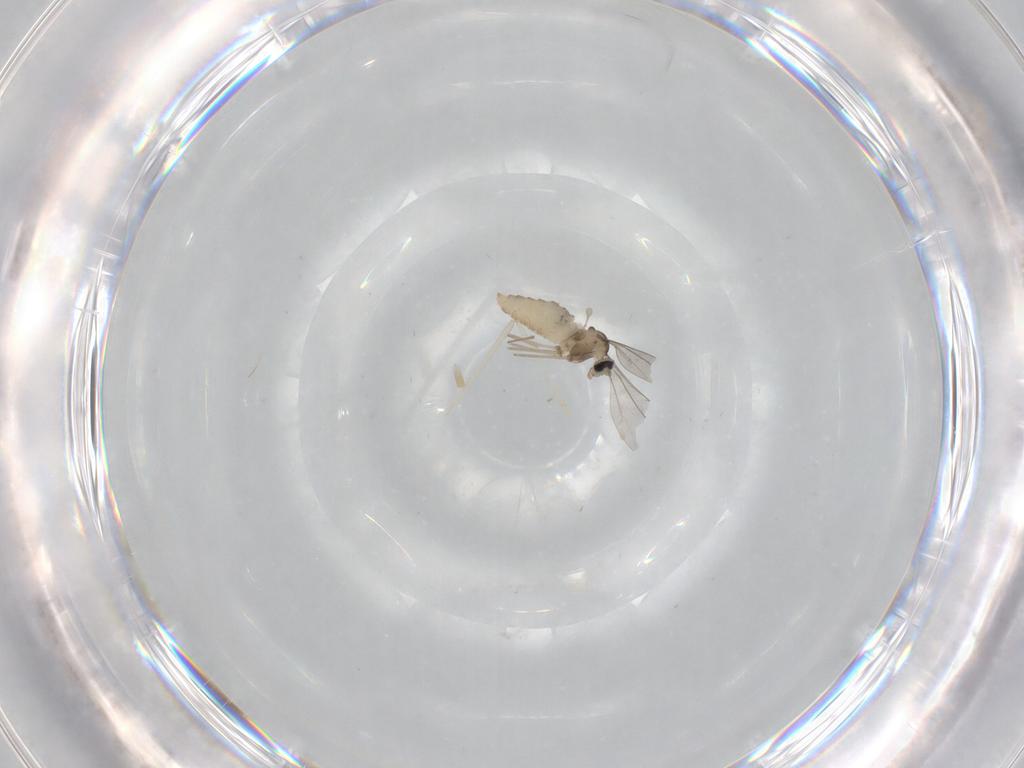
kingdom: Animalia
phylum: Arthropoda
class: Insecta
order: Diptera
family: Cecidomyiidae
